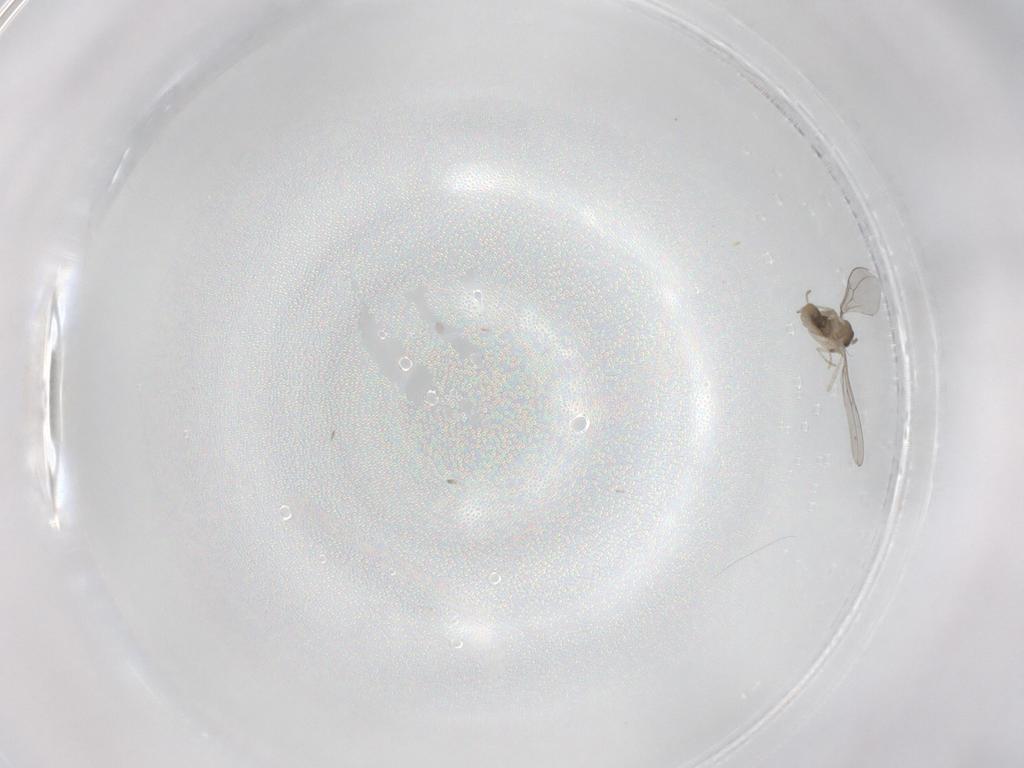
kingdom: Animalia
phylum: Arthropoda
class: Insecta
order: Diptera
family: Cecidomyiidae
